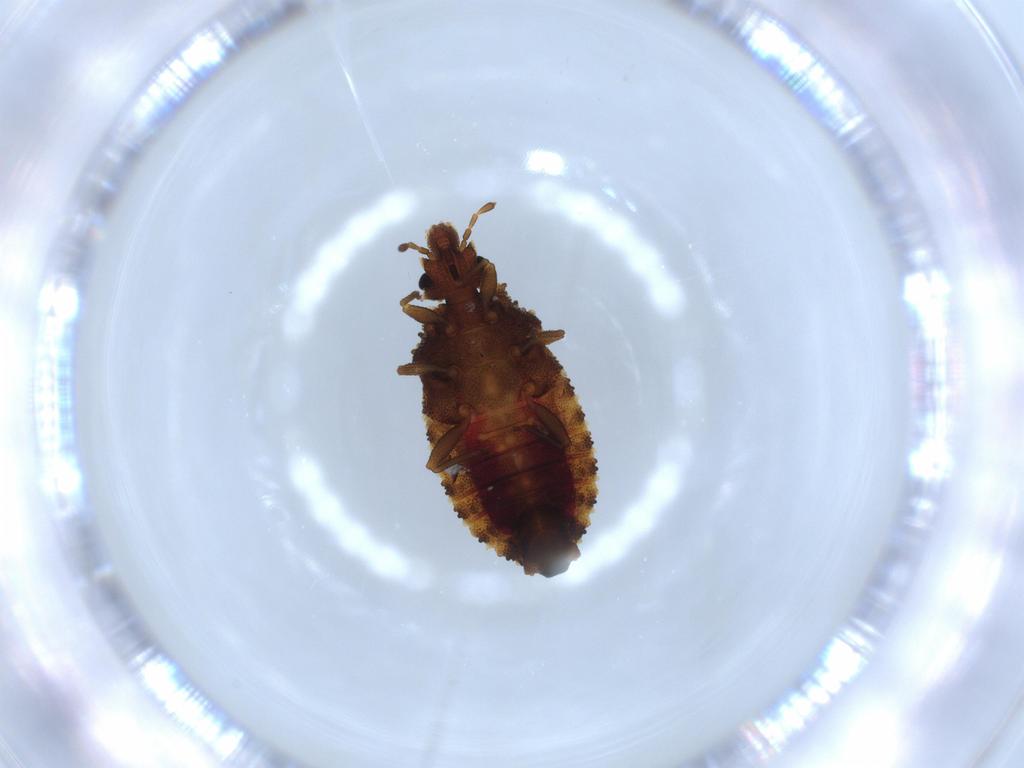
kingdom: Animalia
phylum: Arthropoda
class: Insecta
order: Hemiptera
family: Aradidae
